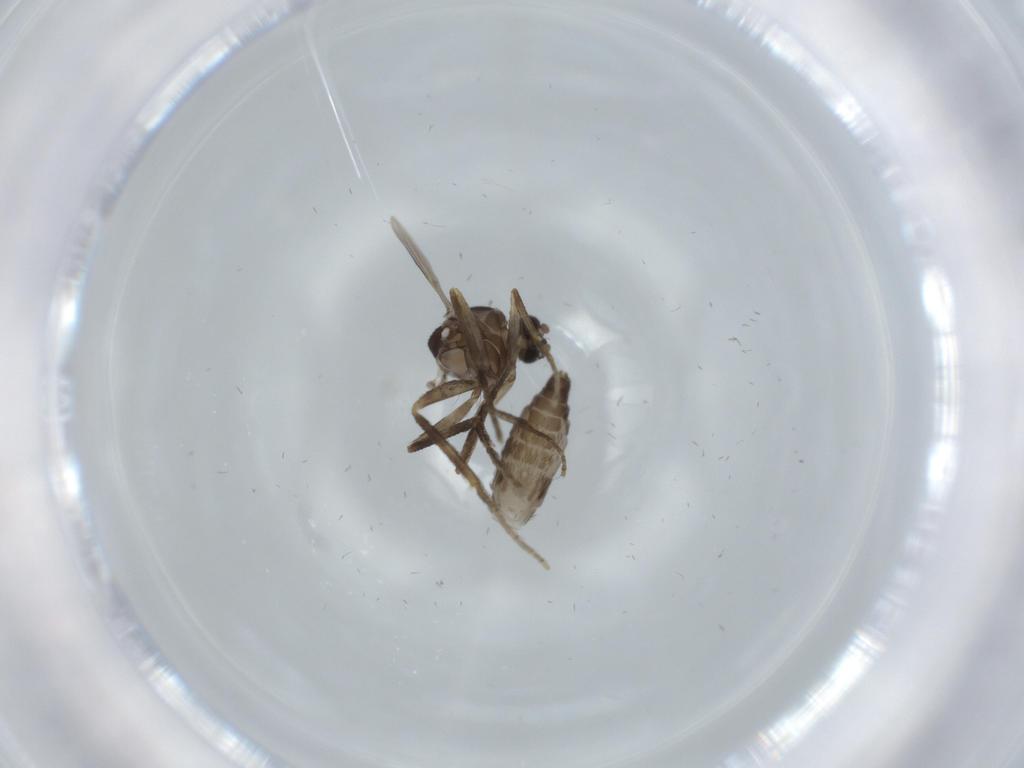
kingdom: Animalia
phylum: Arthropoda
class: Insecta
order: Diptera
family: Ceratopogonidae
